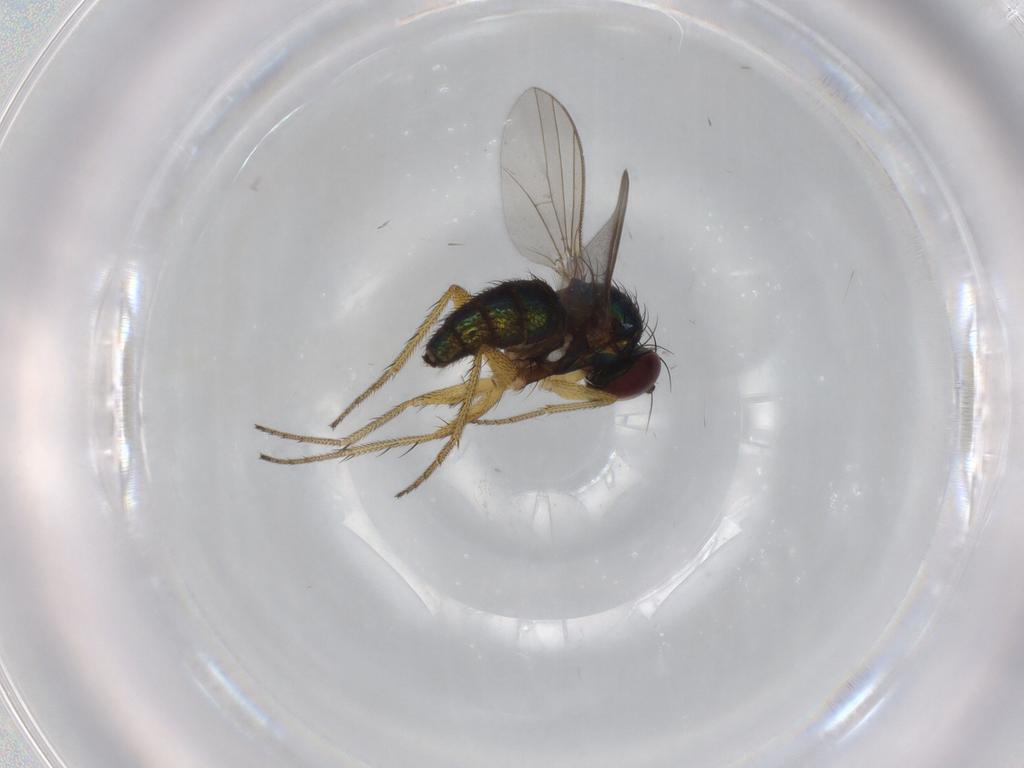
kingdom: Animalia
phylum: Arthropoda
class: Insecta
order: Diptera
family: Dolichopodidae
